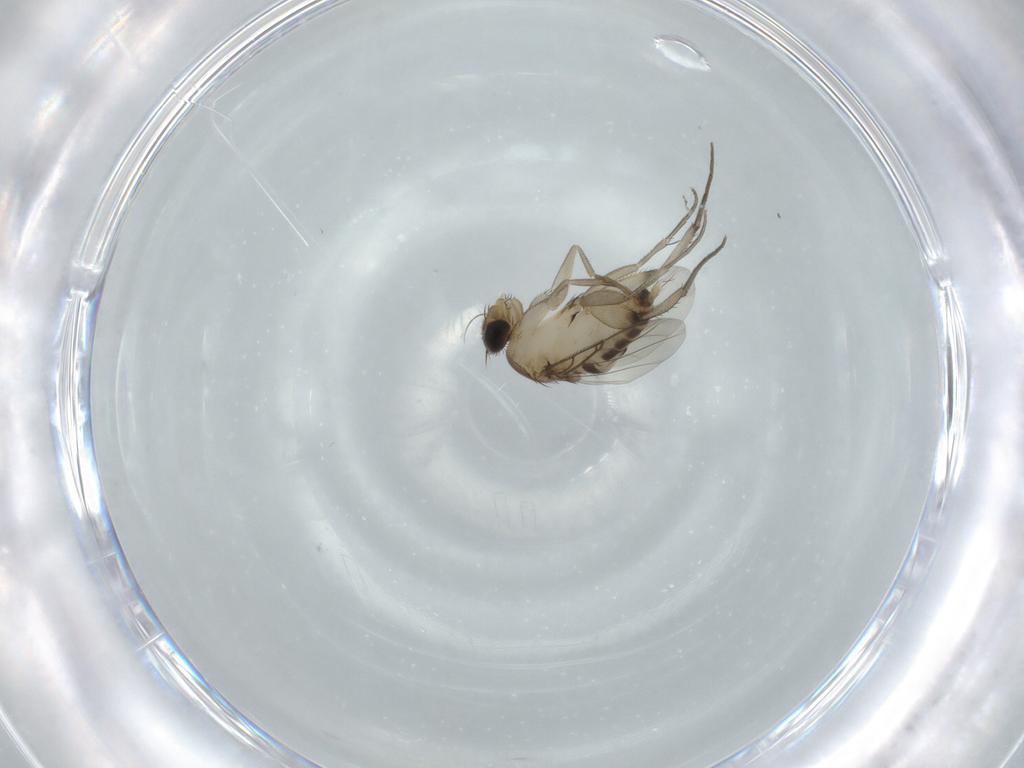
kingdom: Animalia
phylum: Arthropoda
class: Insecta
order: Diptera
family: Phoridae
